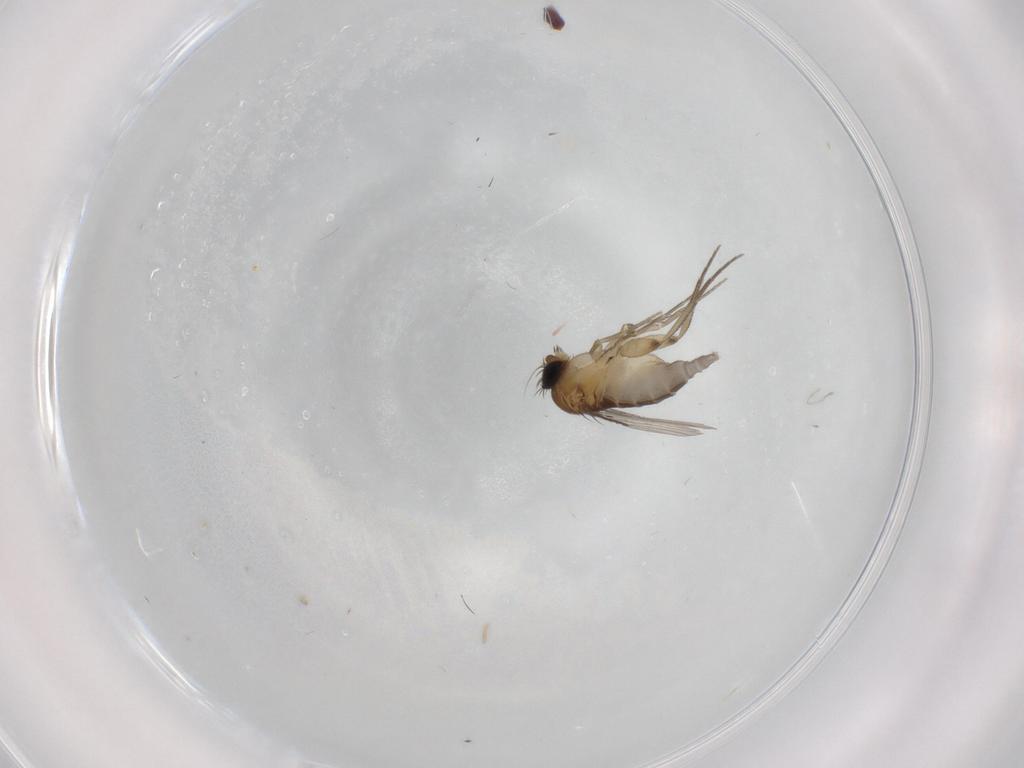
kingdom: Animalia
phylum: Arthropoda
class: Insecta
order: Diptera
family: Phoridae
